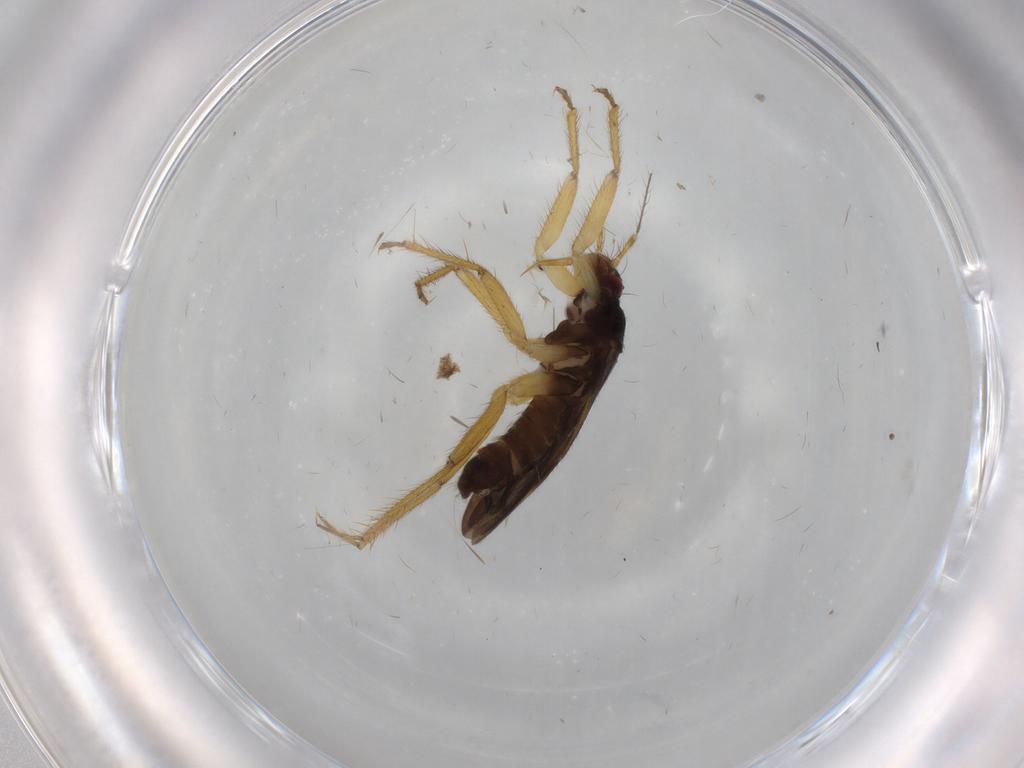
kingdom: Animalia
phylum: Arthropoda
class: Insecta
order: Hemiptera
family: Ceratocombidae
